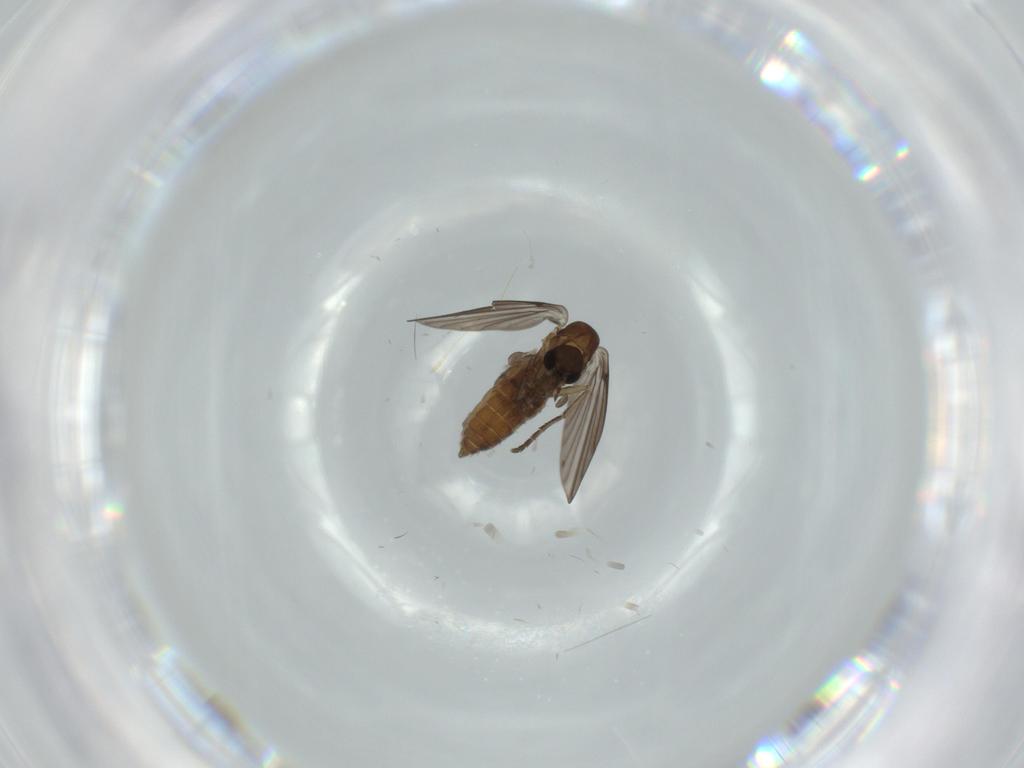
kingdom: Animalia
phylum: Arthropoda
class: Insecta
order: Diptera
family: Psychodidae
